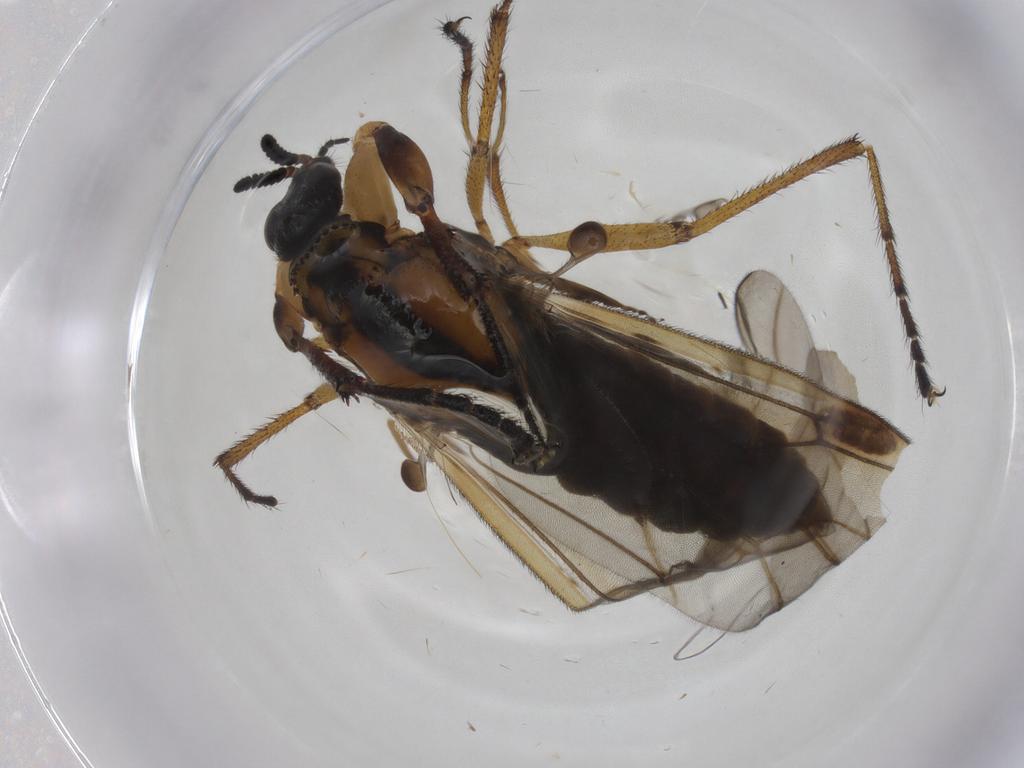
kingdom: Animalia
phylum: Arthropoda
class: Insecta
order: Diptera
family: Bibionidae
